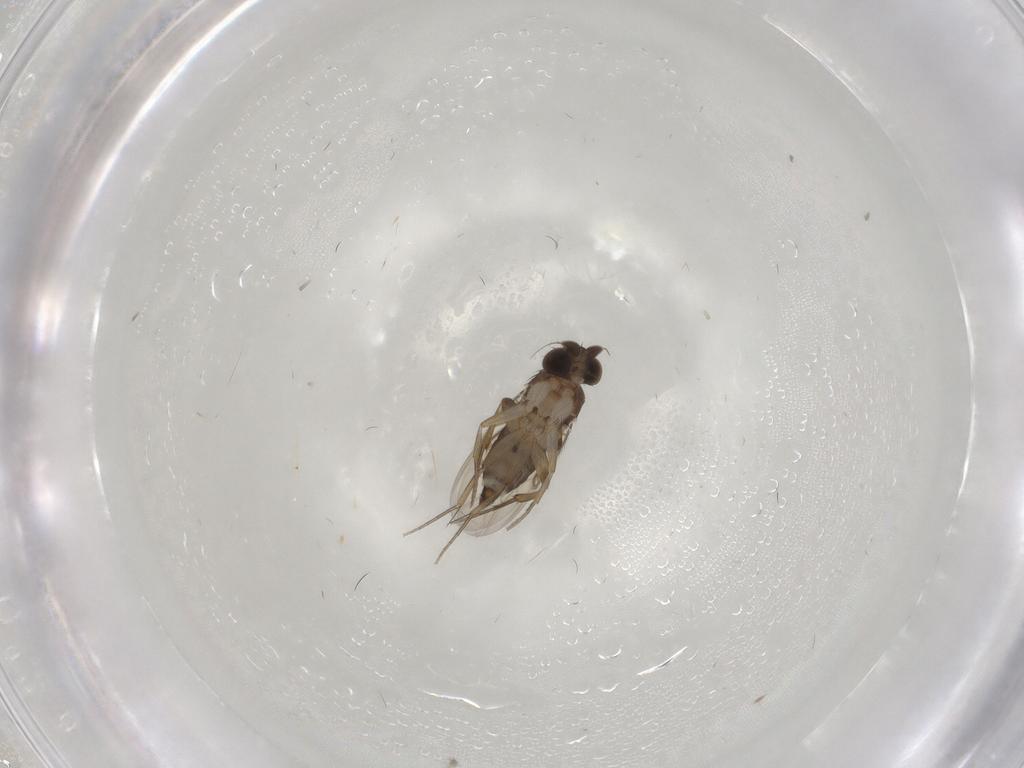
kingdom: Animalia
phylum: Arthropoda
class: Insecta
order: Diptera
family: Phoridae
